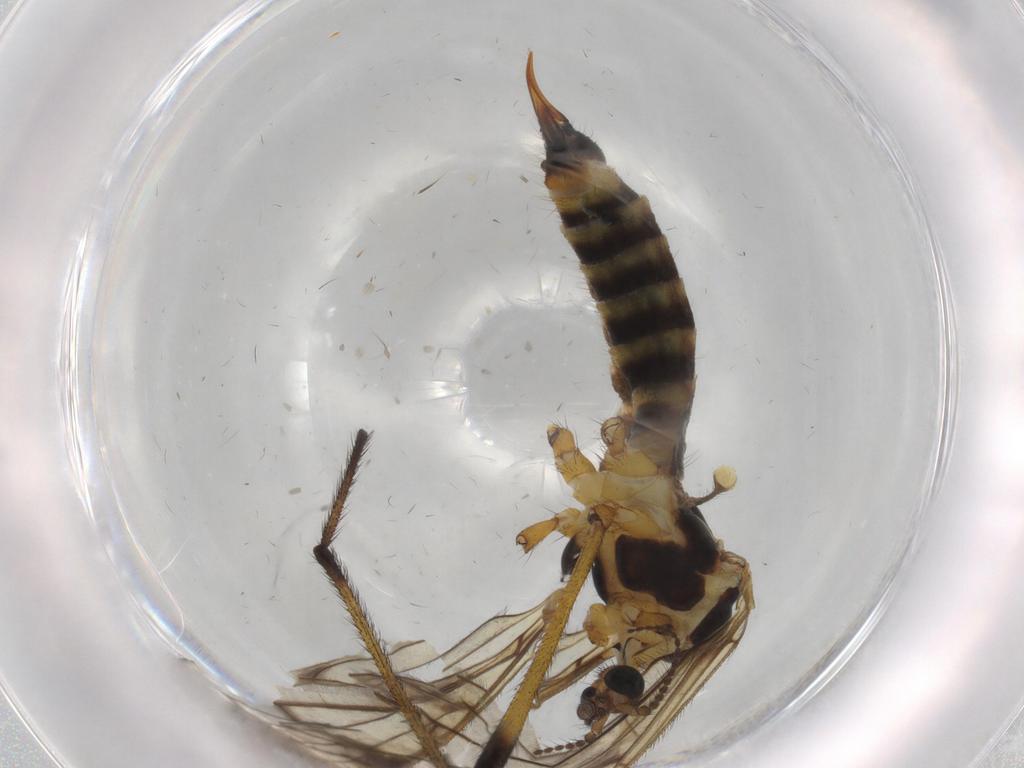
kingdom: Animalia
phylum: Arthropoda
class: Insecta
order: Diptera
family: Limoniidae
